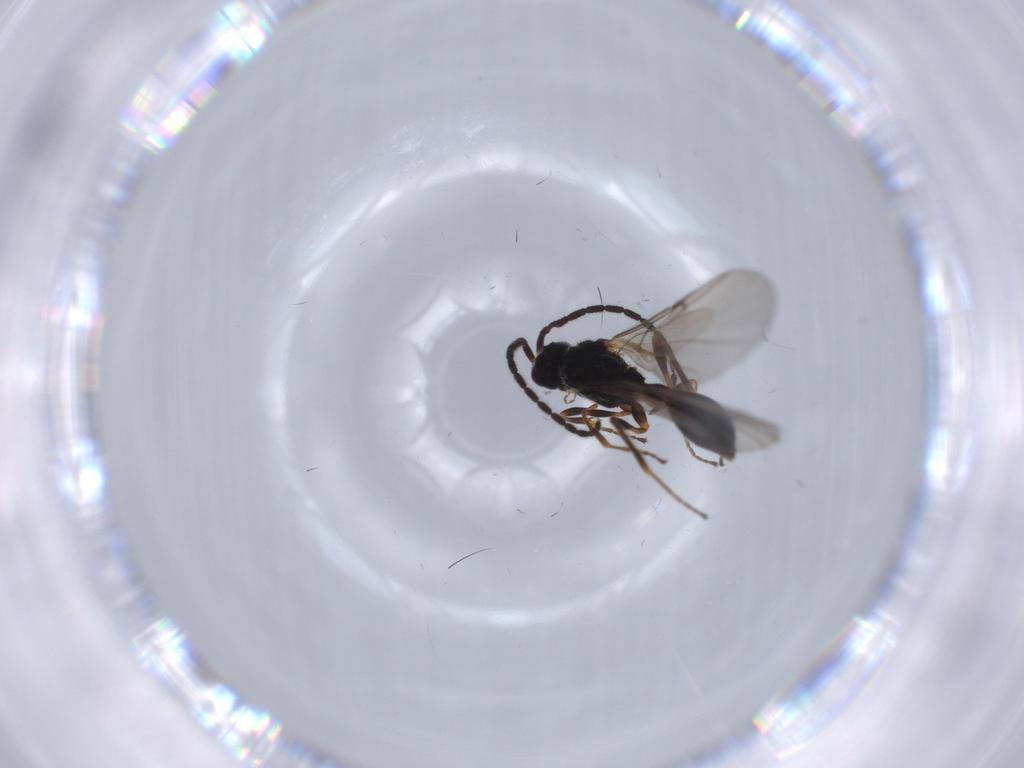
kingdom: Animalia
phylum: Arthropoda
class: Insecta
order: Hymenoptera
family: Diapriidae
